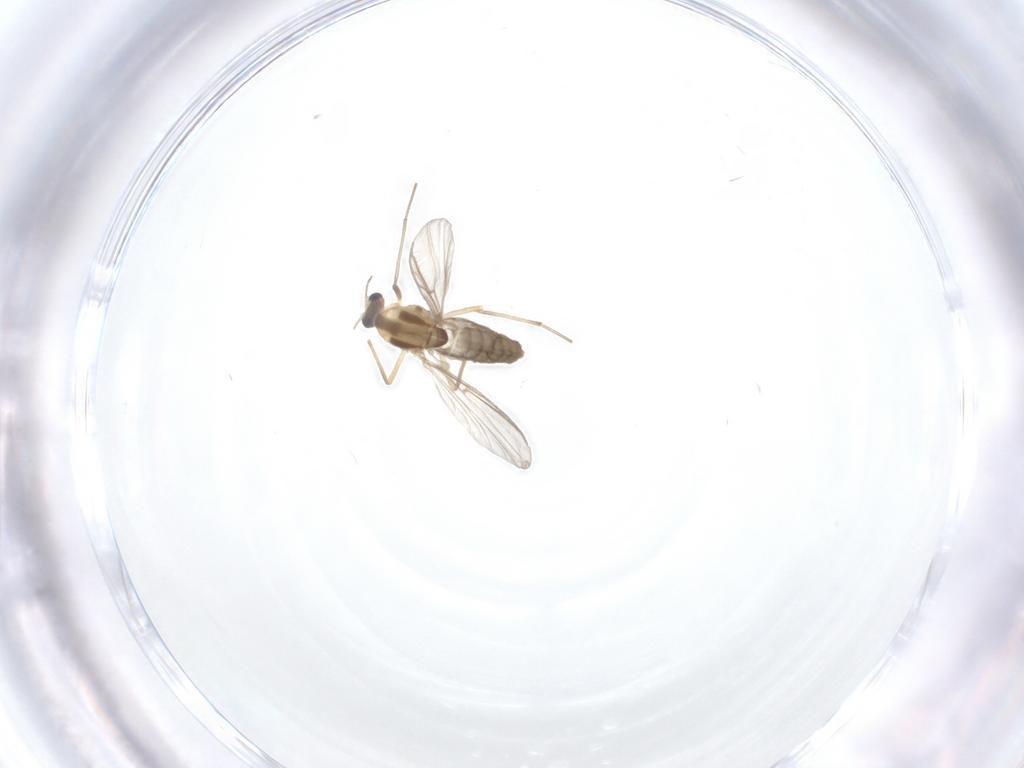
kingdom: Animalia
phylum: Arthropoda
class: Insecta
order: Diptera
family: Chironomidae
